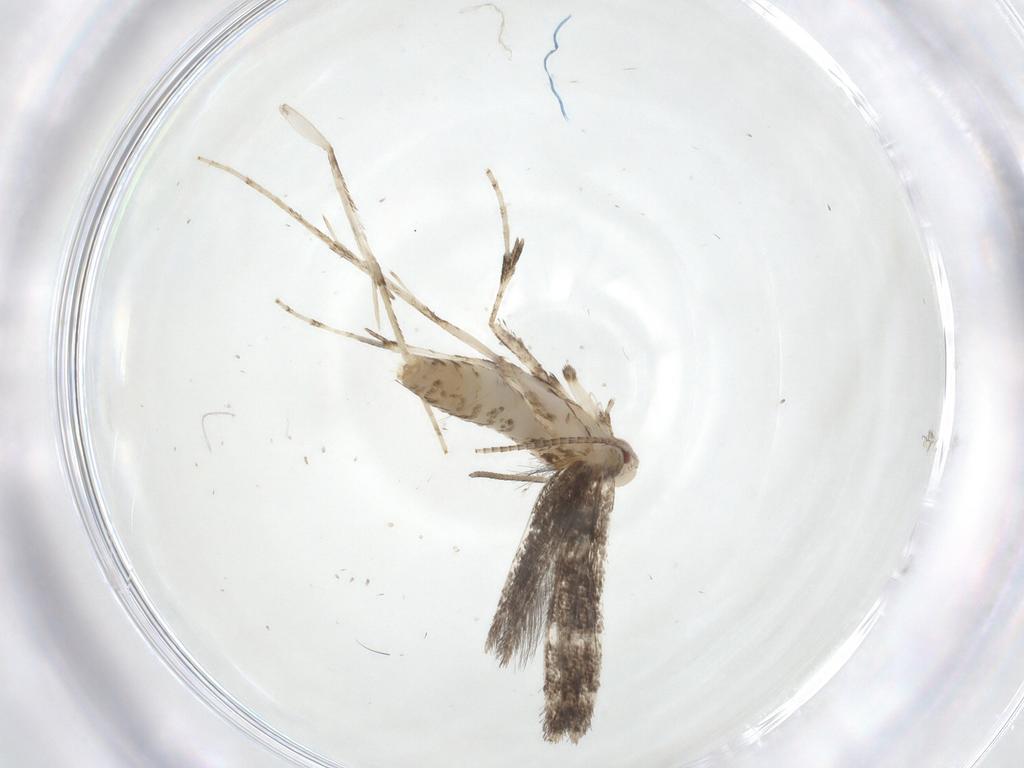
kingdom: Animalia
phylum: Arthropoda
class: Insecta
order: Lepidoptera
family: Gracillariidae
